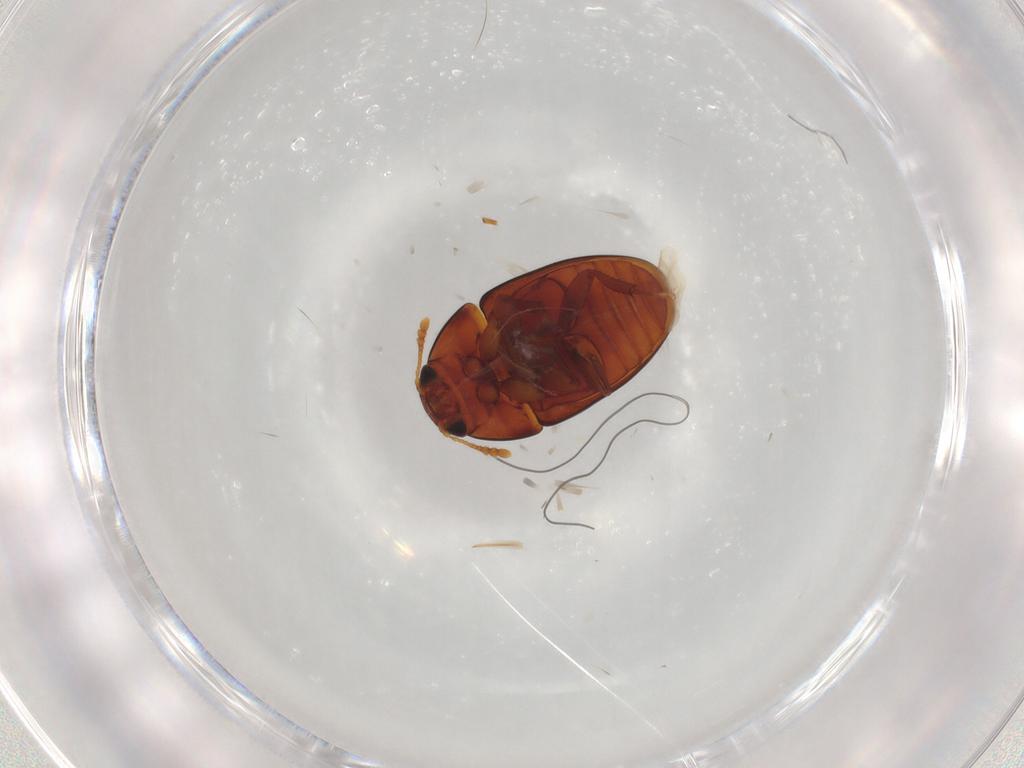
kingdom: Animalia
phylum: Arthropoda
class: Insecta
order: Coleoptera
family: Phalacridae
